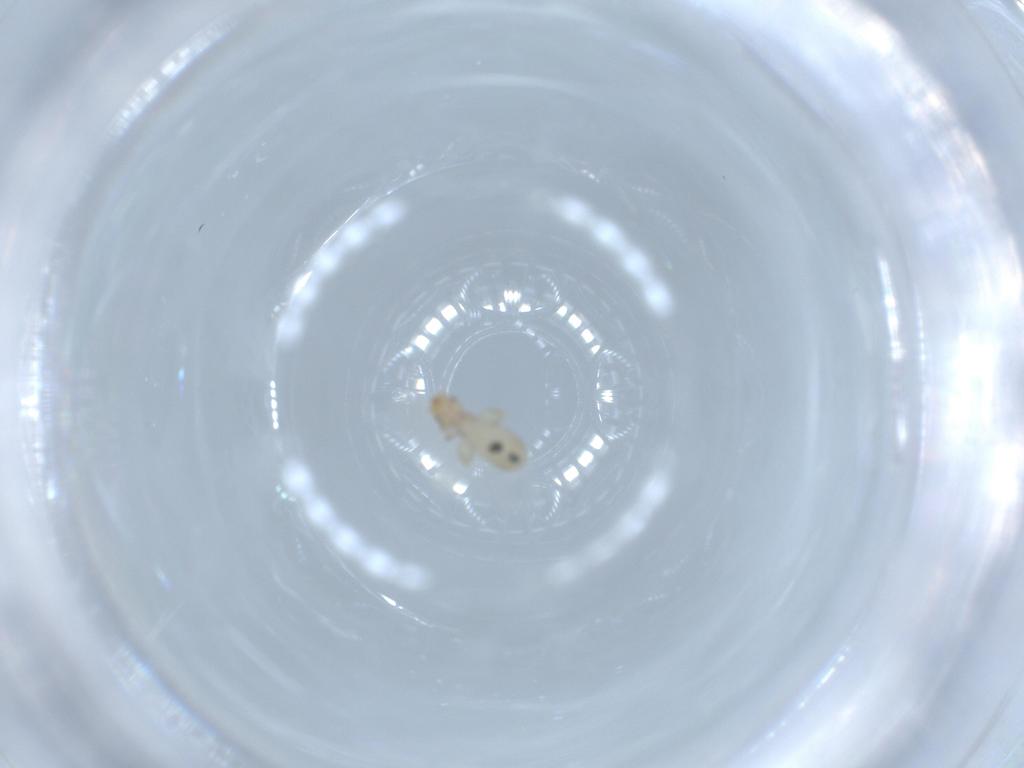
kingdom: Animalia
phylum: Arthropoda
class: Insecta
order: Psocodea
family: Liposcelididae
